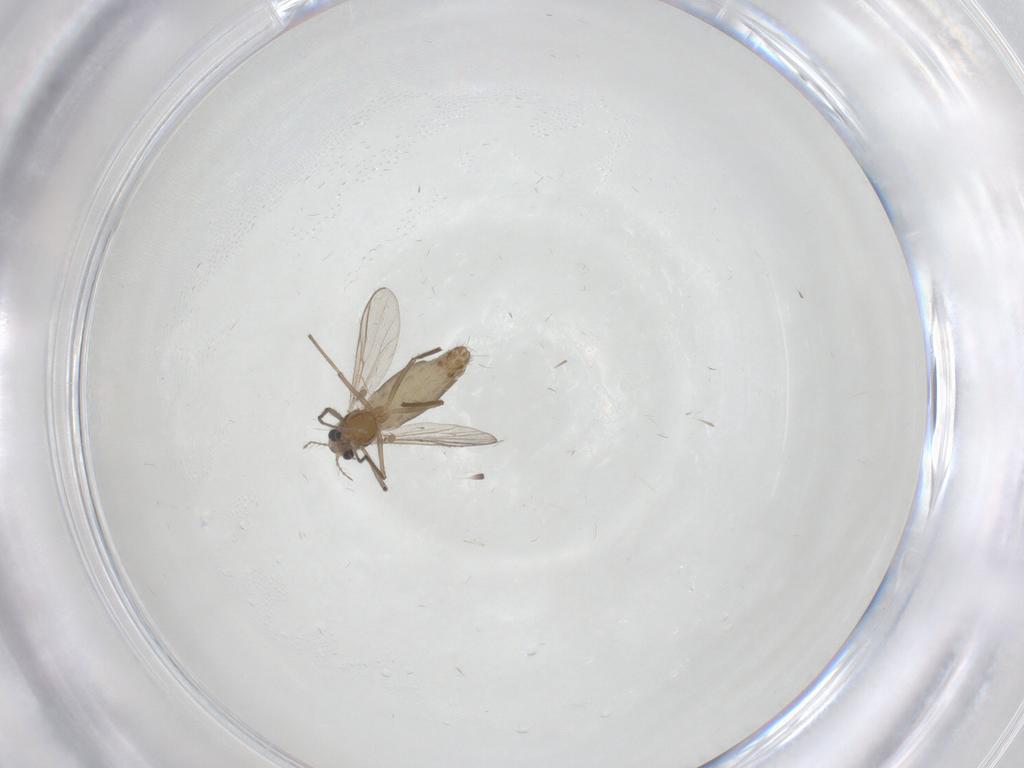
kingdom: Animalia
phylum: Arthropoda
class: Insecta
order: Diptera
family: Chironomidae
